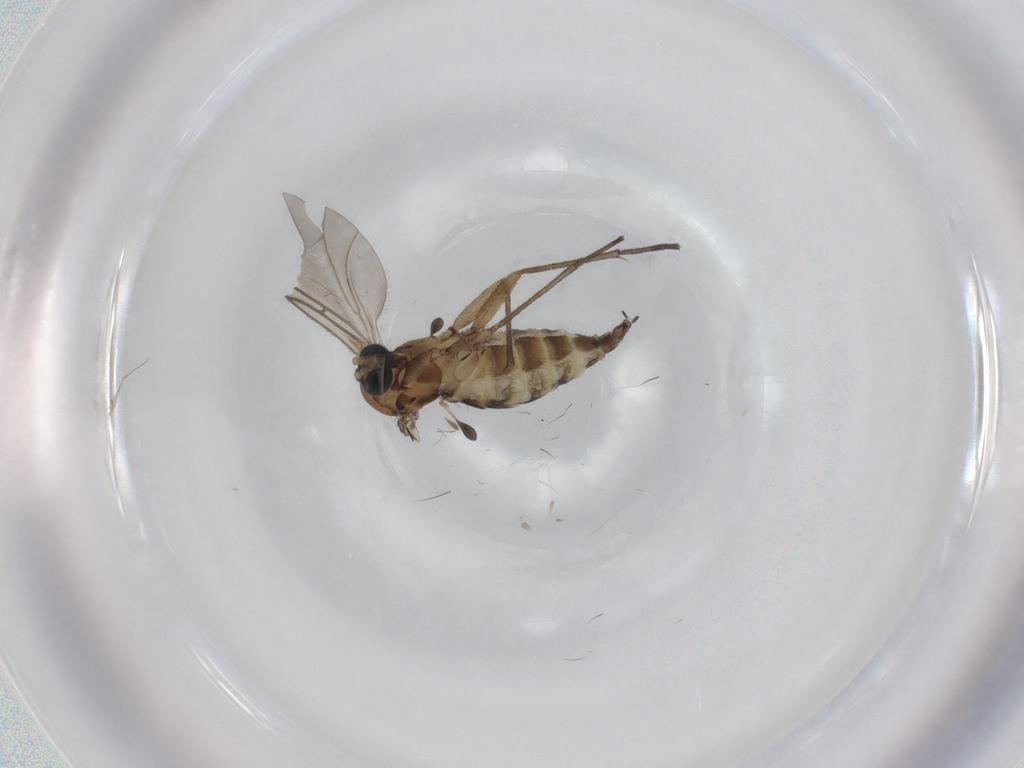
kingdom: Animalia
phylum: Arthropoda
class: Insecta
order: Diptera
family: Sciaridae
